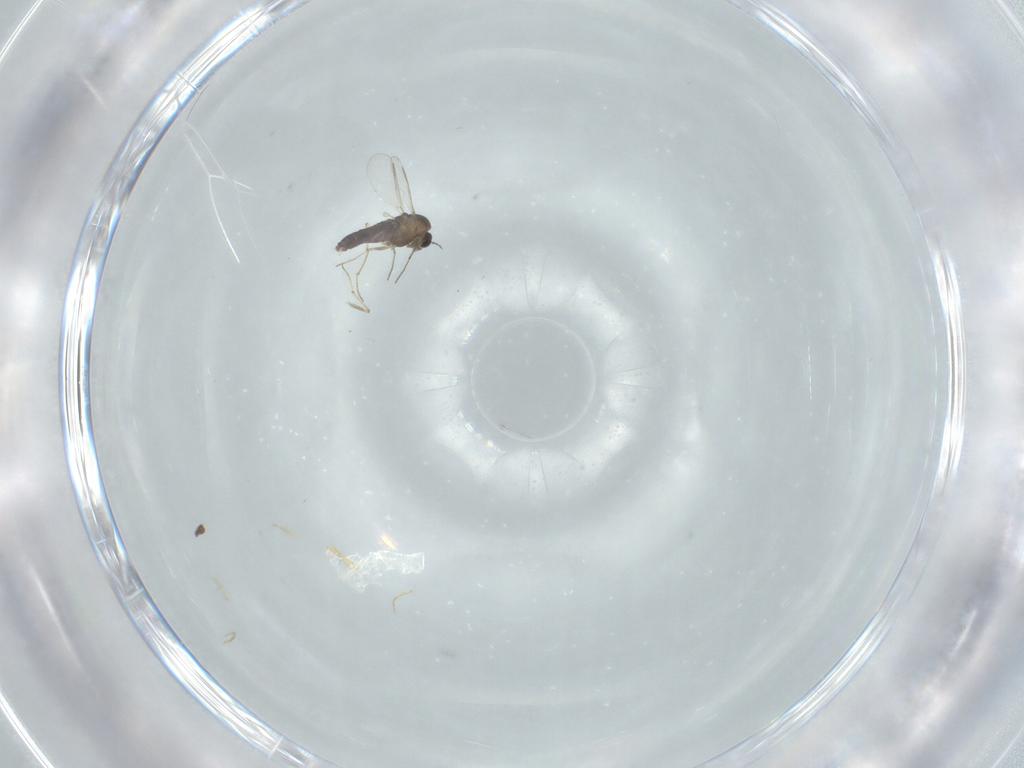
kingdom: Animalia
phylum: Arthropoda
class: Insecta
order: Diptera
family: Chironomidae
